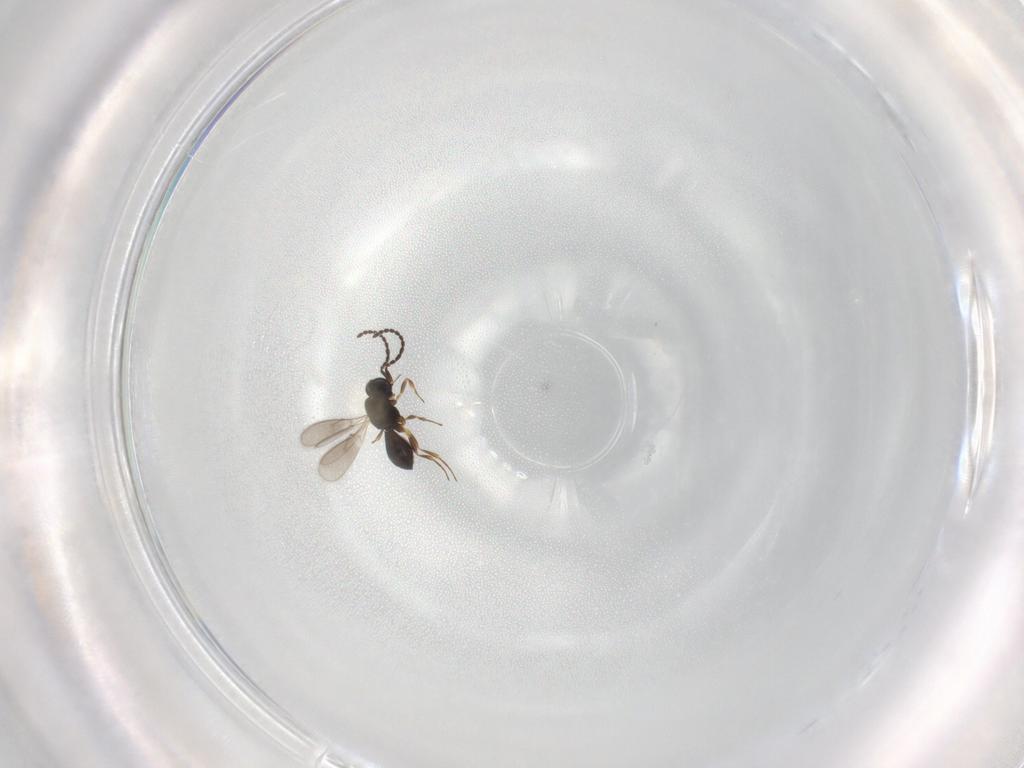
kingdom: Animalia
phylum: Arthropoda
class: Insecta
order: Hymenoptera
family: Scelionidae
